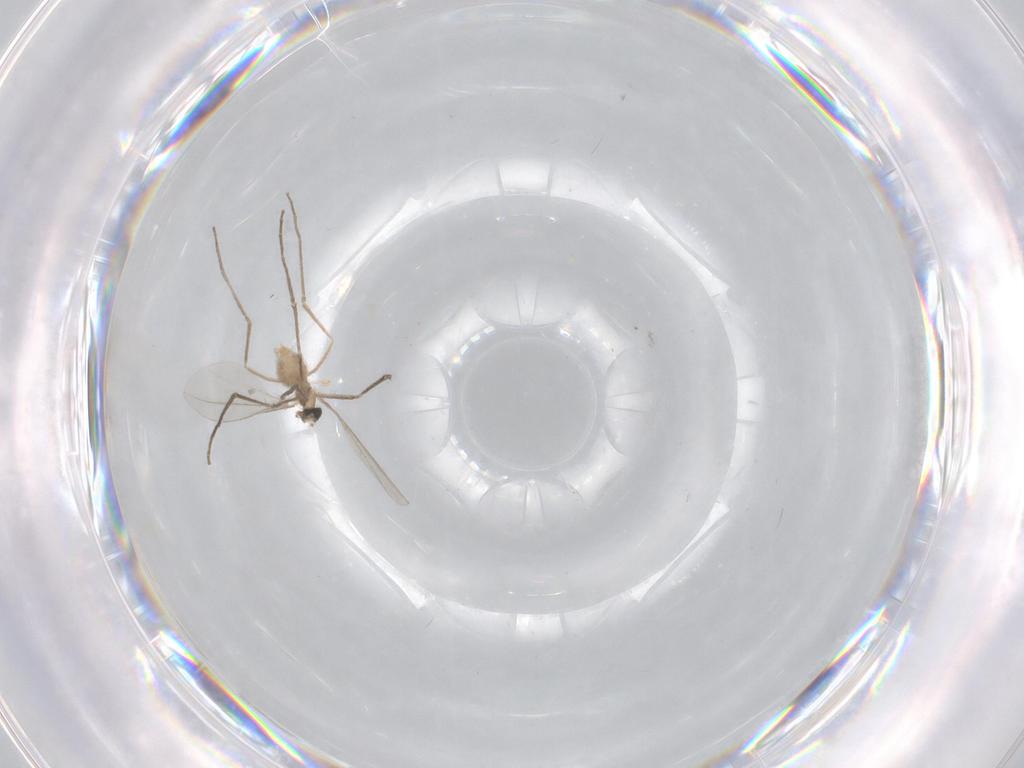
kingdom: Animalia
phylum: Arthropoda
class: Insecta
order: Diptera
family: Cecidomyiidae
